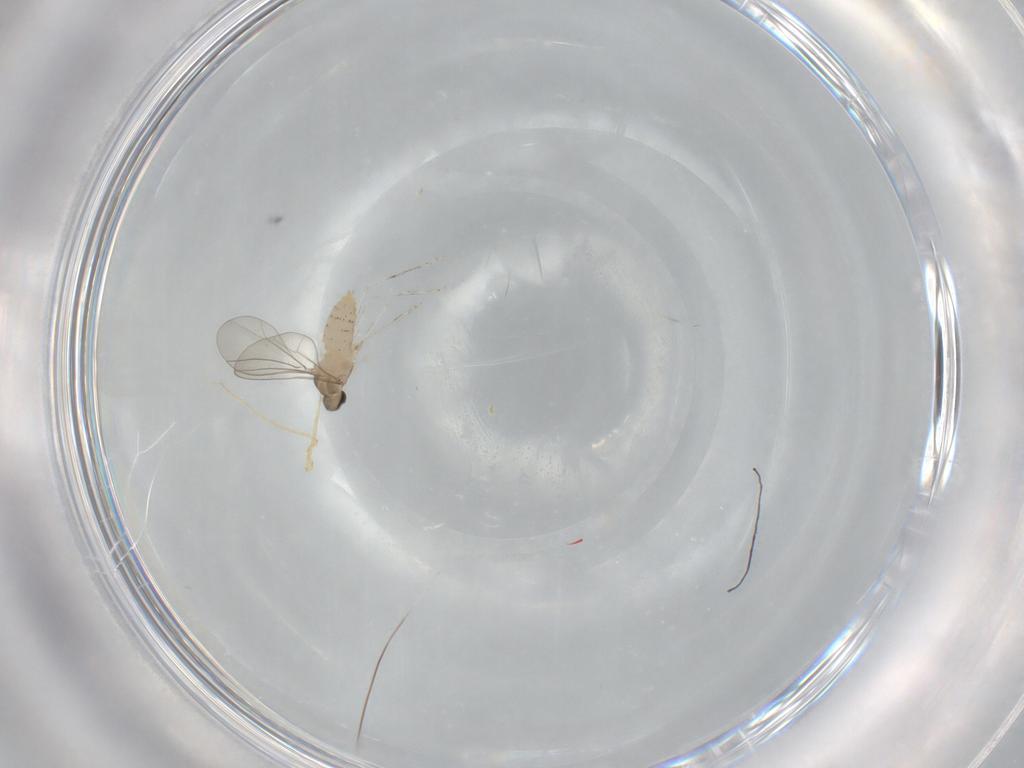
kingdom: Animalia
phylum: Arthropoda
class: Insecta
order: Diptera
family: Cecidomyiidae
